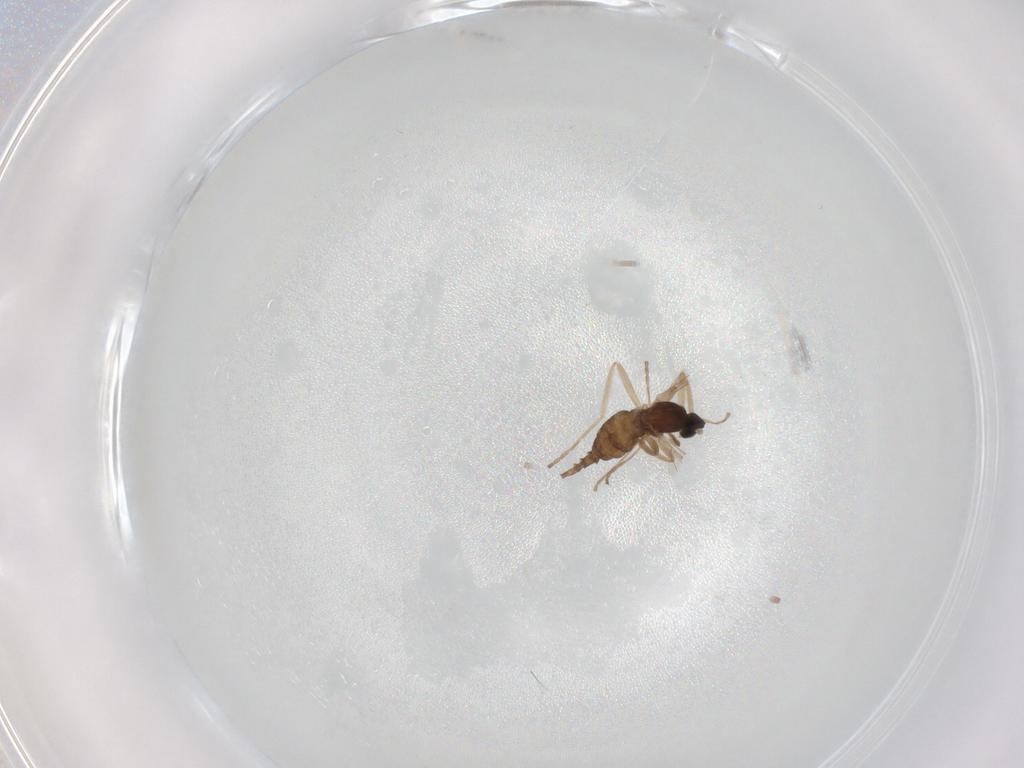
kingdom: Animalia
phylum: Arthropoda
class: Insecta
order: Diptera
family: Cecidomyiidae
